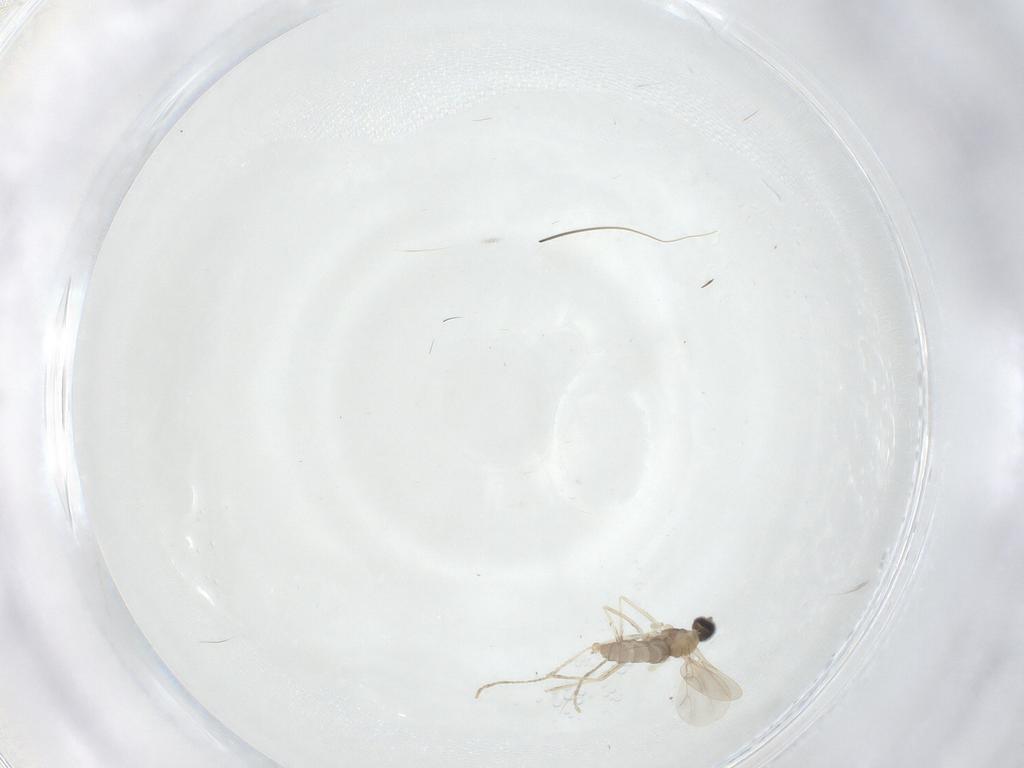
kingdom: Animalia
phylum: Arthropoda
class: Insecta
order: Diptera
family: Cecidomyiidae
